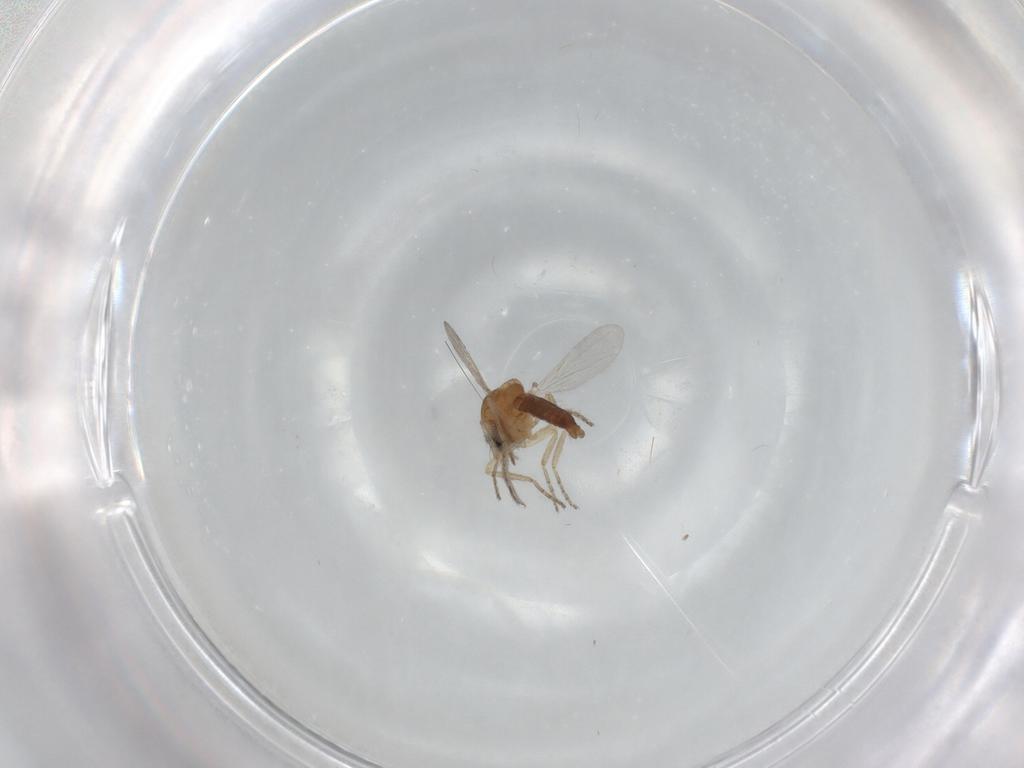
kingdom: Animalia
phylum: Arthropoda
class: Insecta
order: Diptera
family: Ceratopogonidae
